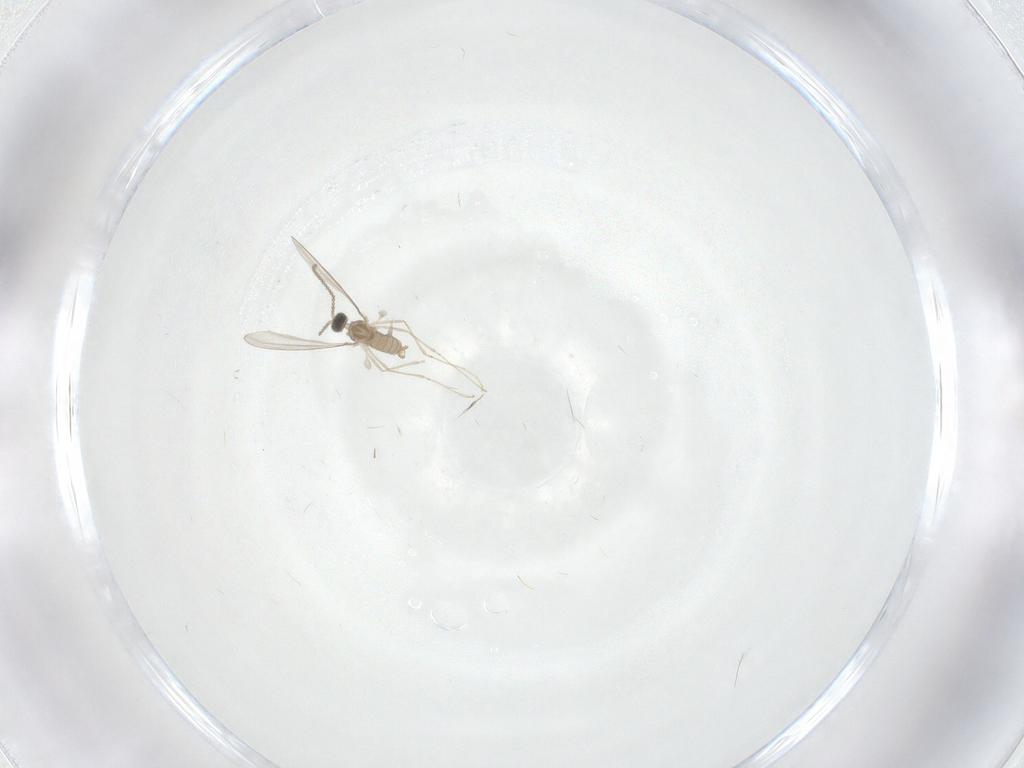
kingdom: Animalia
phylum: Arthropoda
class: Insecta
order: Diptera
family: Cecidomyiidae
